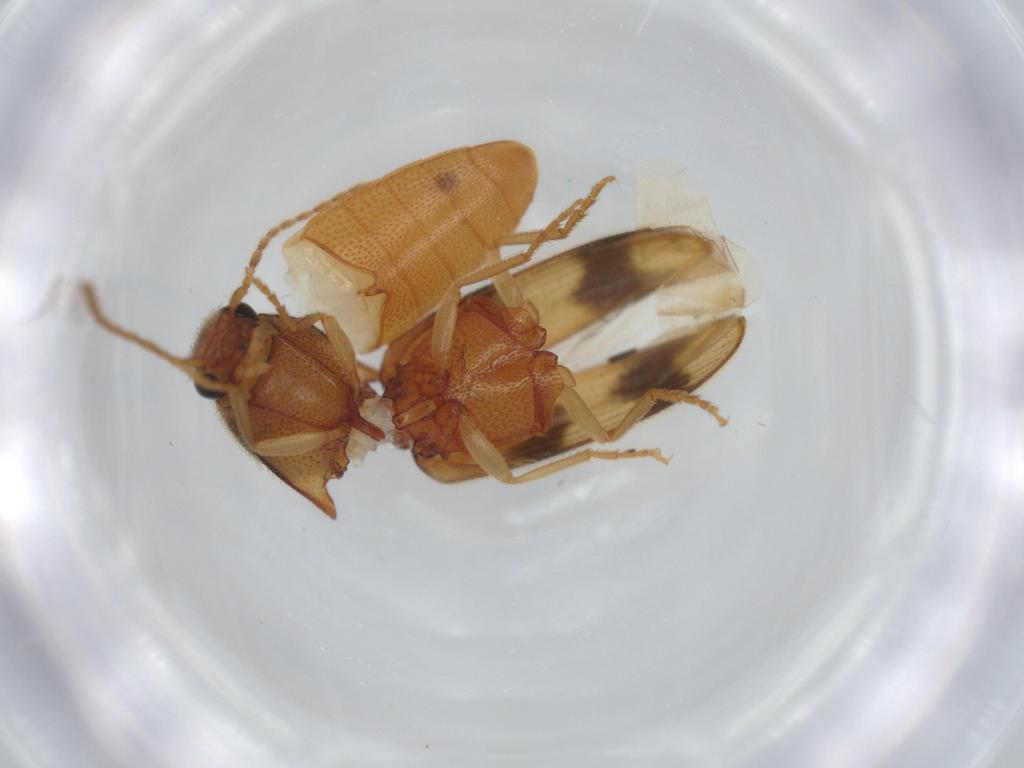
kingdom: Animalia
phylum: Arthropoda
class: Insecta
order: Coleoptera
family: Elateridae
